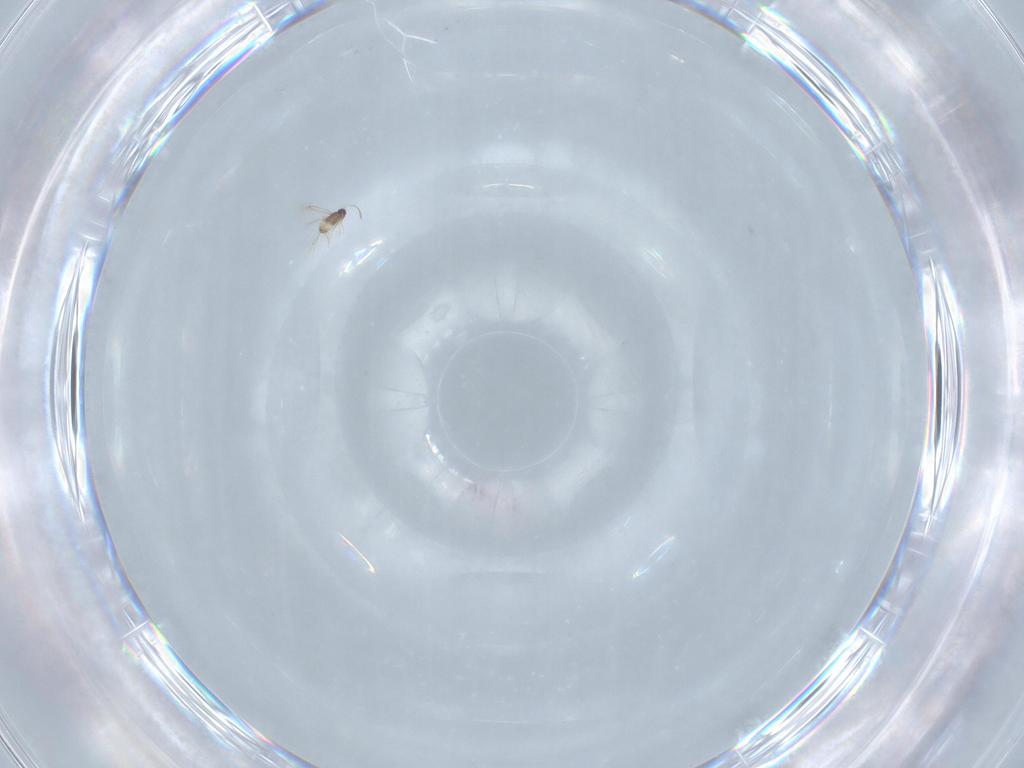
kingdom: Animalia
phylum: Arthropoda
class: Insecta
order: Hymenoptera
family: Mymaridae
